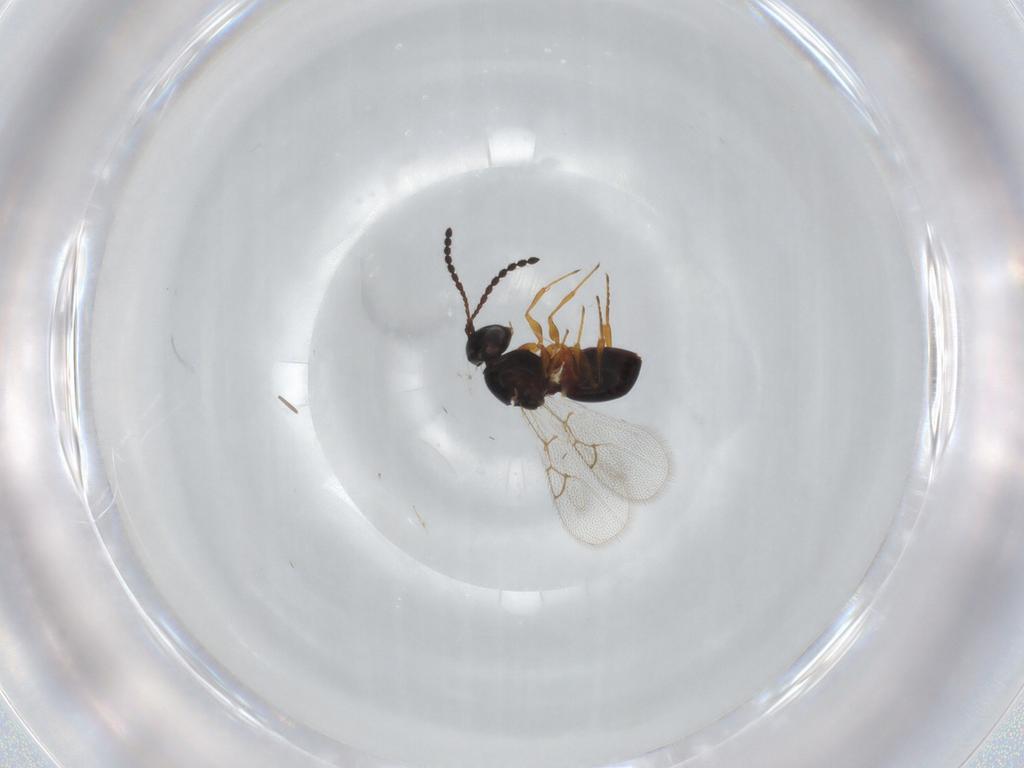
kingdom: Animalia
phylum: Arthropoda
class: Insecta
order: Hymenoptera
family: Figitidae
